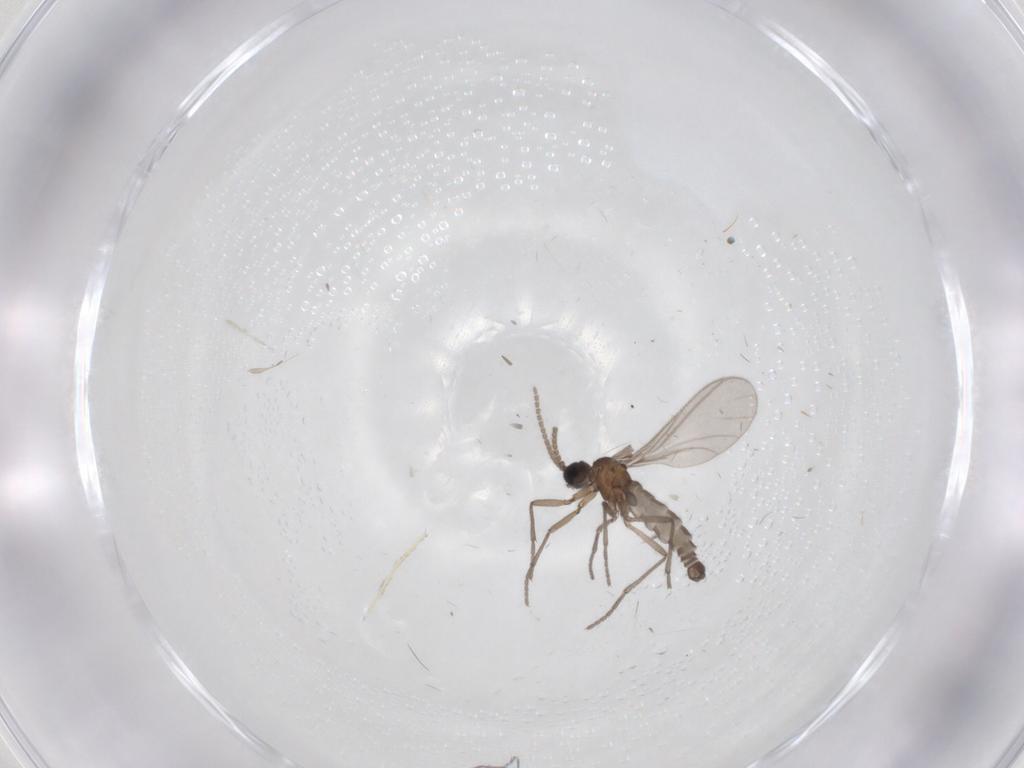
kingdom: Animalia
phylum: Arthropoda
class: Insecta
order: Diptera
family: Sciaridae
